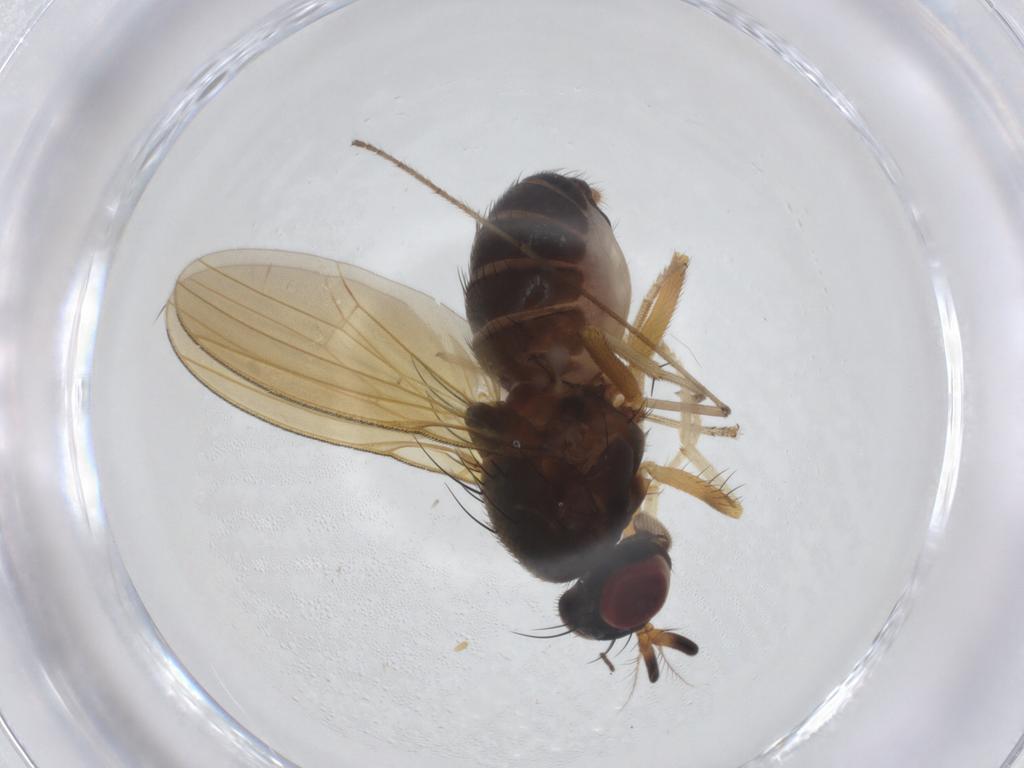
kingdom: Animalia
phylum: Arthropoda
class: Insecta
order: Diptera
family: Limoniidae
